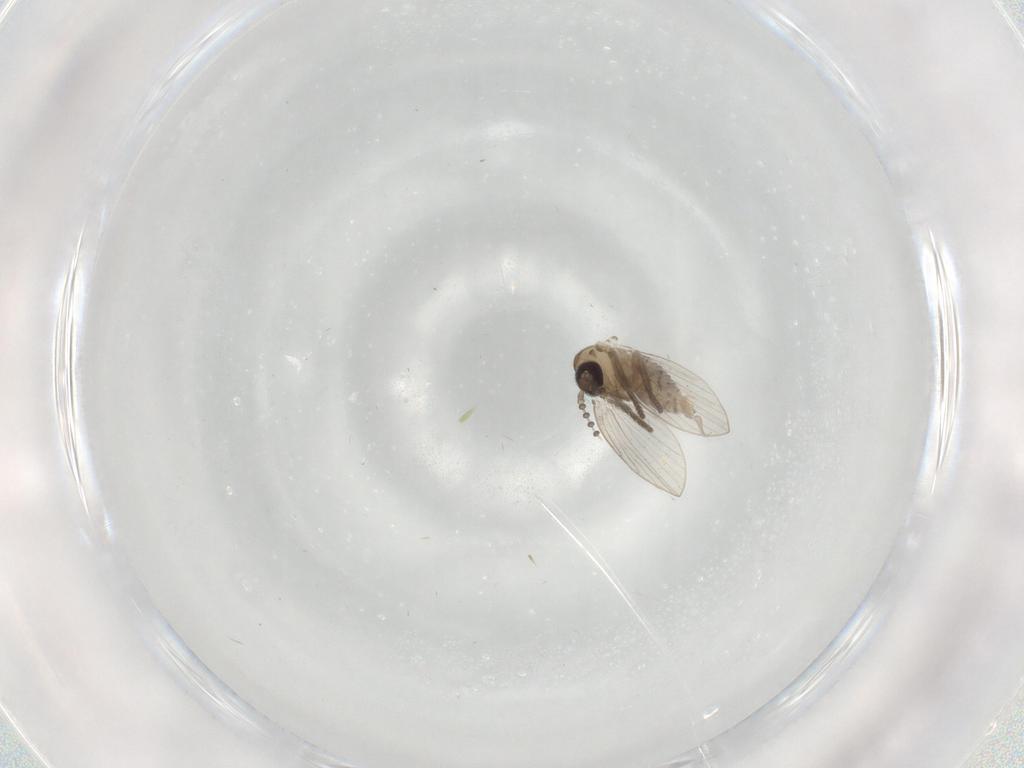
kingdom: Animalia
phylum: Arthropoda
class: Insecta
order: Diptera
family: Psychodidae
